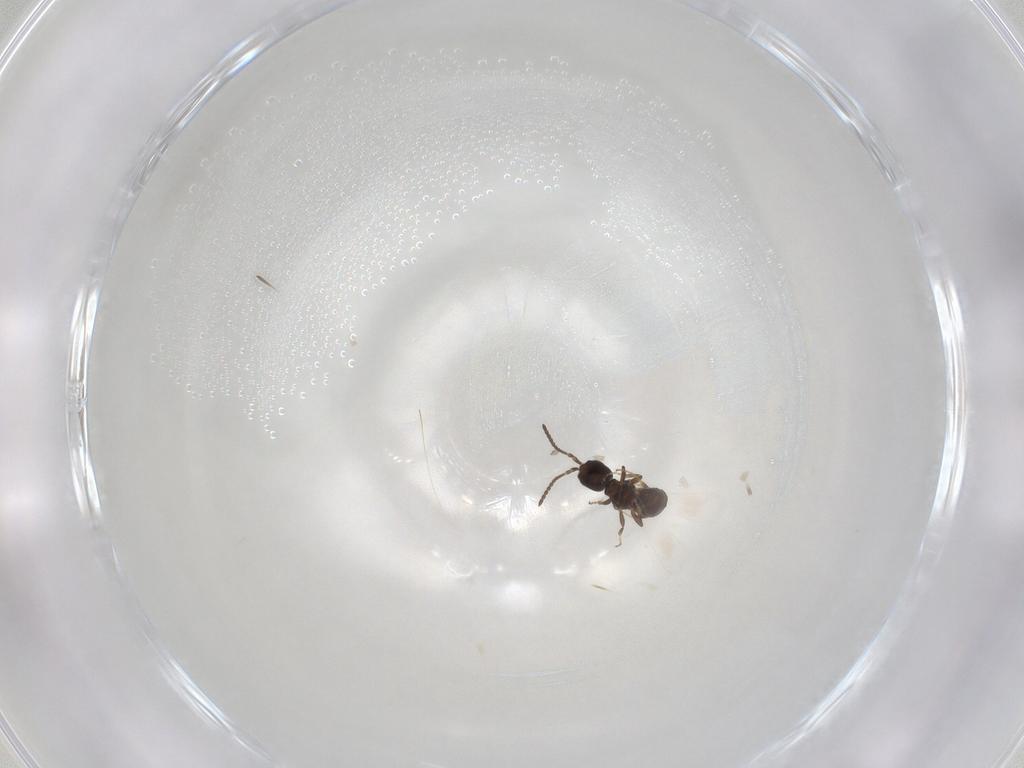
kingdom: Animalia
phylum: Arthropoda
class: Insecta
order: Hymenoptera
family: Bethylidae
